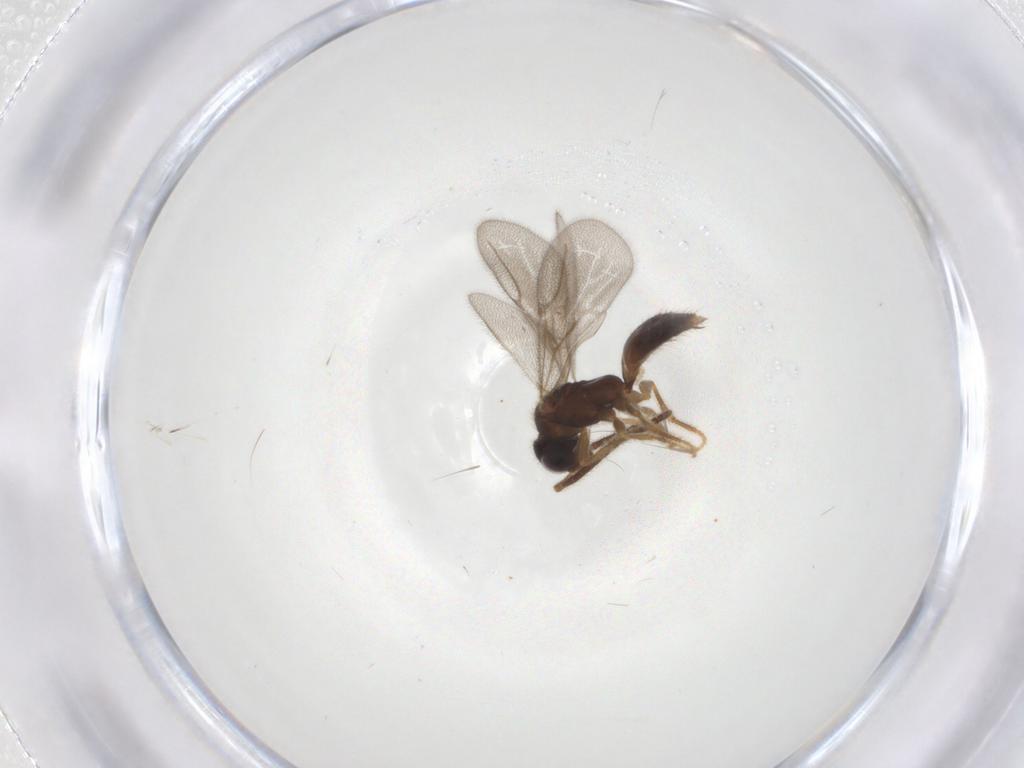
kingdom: Animalia
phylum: Arthropoda
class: Insecta
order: Hymenoptera
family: Bethylidae
